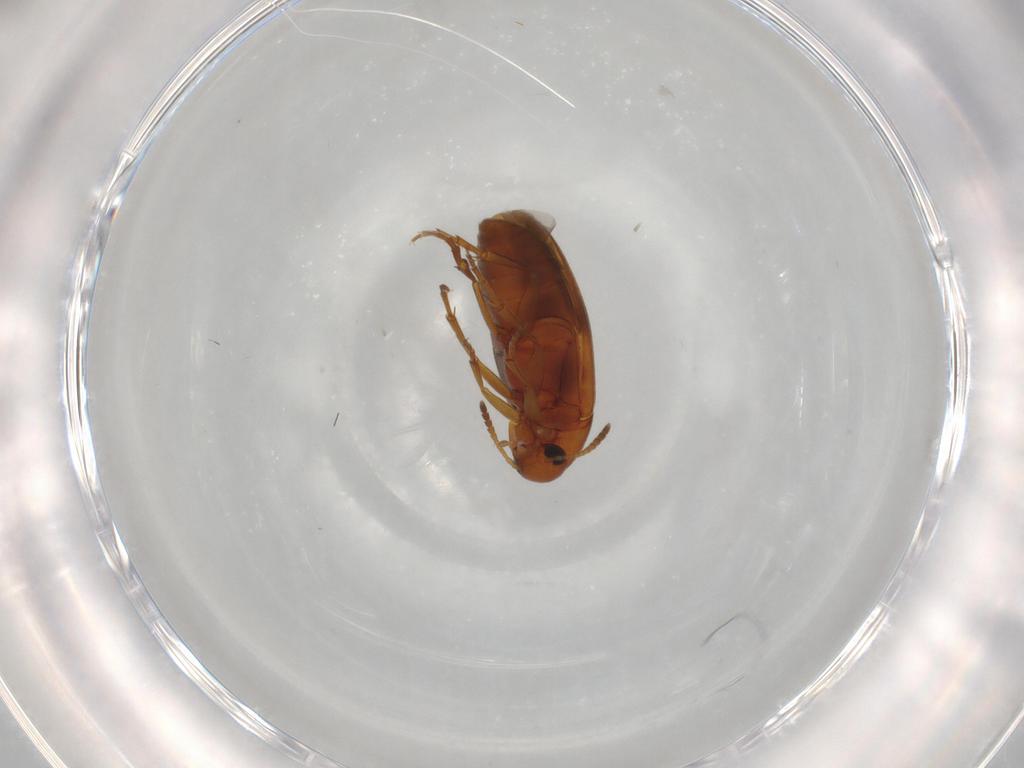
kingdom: Animalia
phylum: Arthropoda
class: Insecta
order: Coleoptera
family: Scraptiidae
